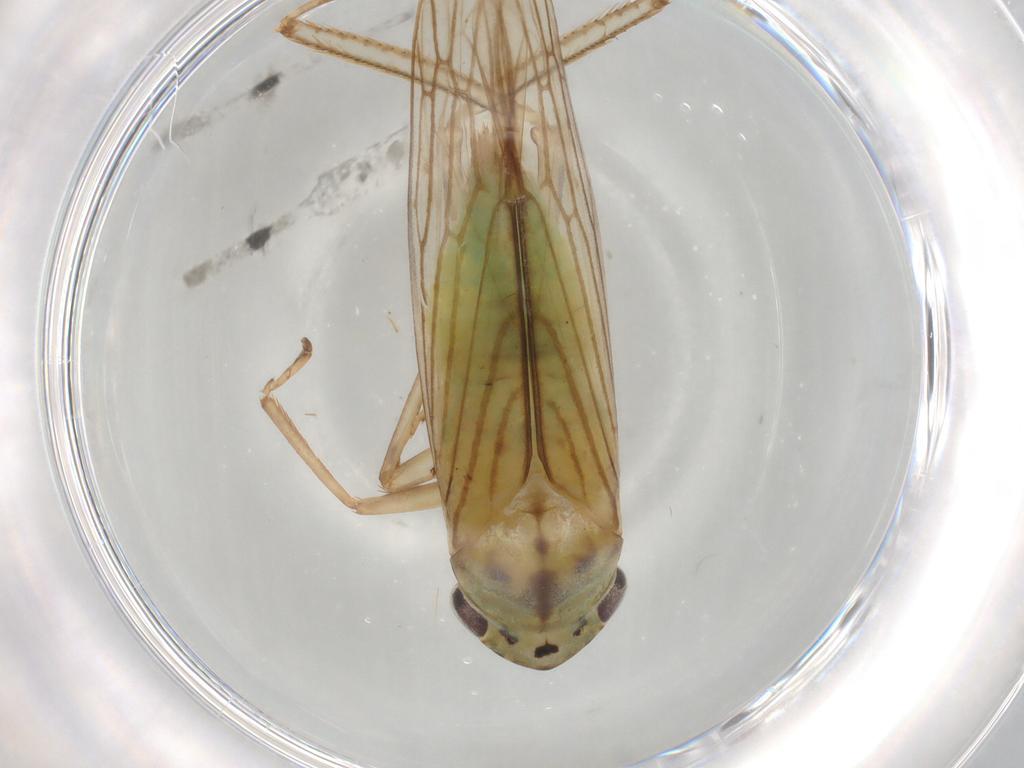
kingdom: Animalia
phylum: Arthropoda
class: Insecta
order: Hemiptera
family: Cicadellidae
